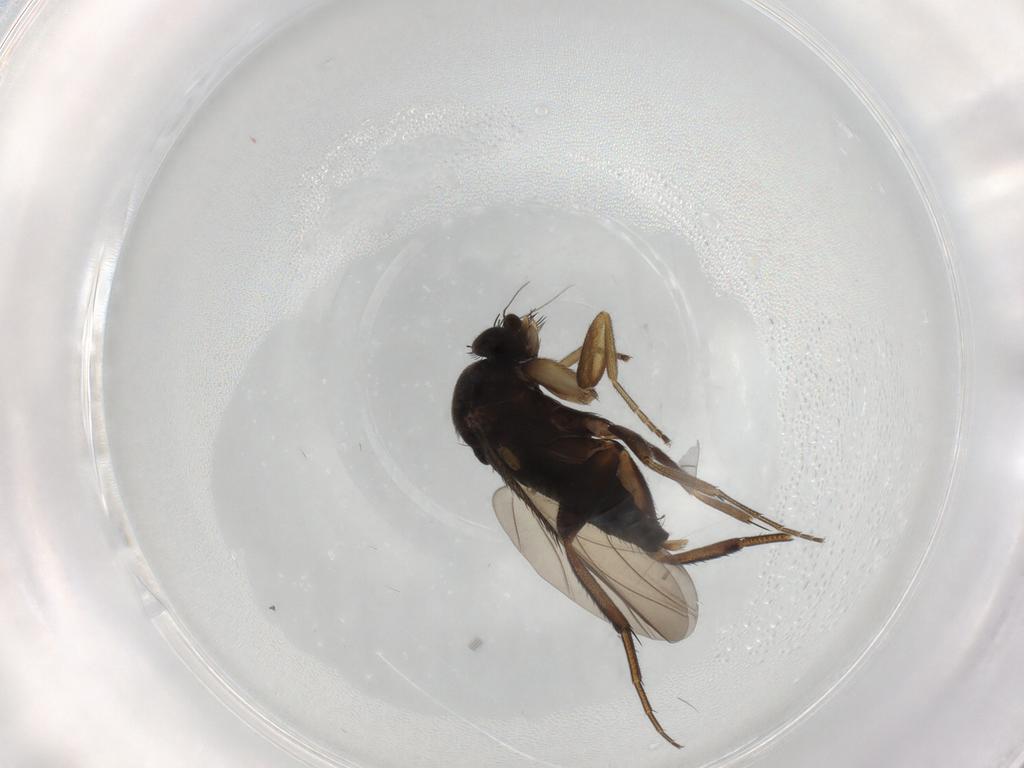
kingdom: Animalia
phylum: Arthropoda
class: Insecta
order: Diptera
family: Phoridae
